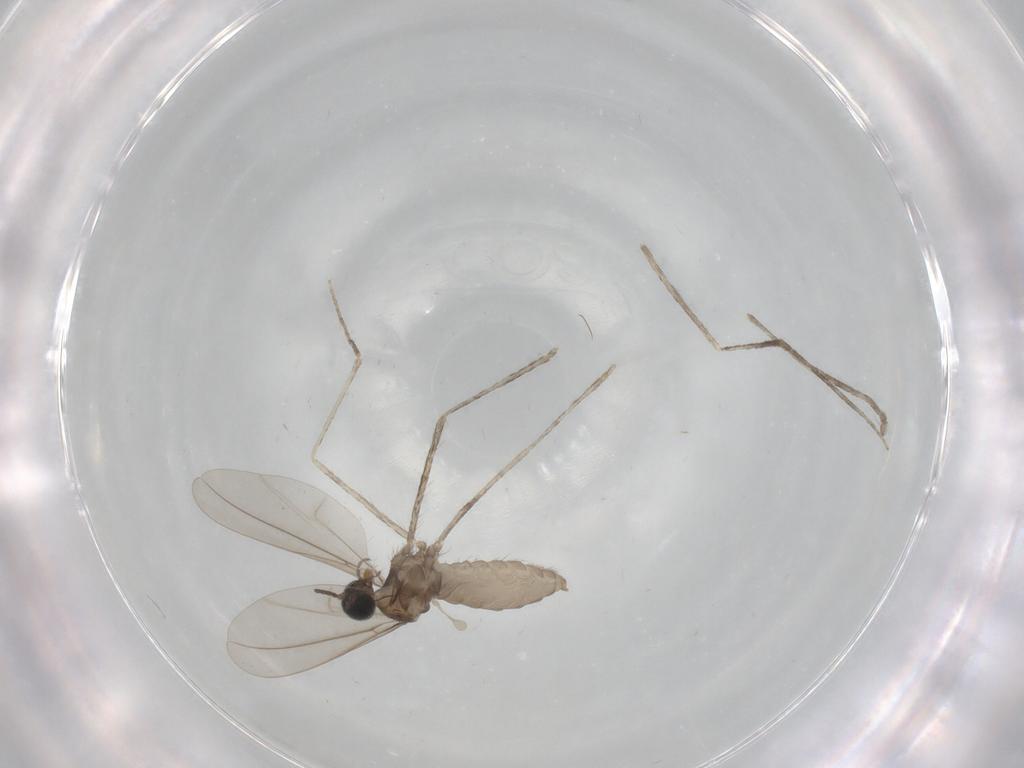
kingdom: Animalia
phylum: Arthropoda
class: Insecta
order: Diptera
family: Cecidomyiidae
